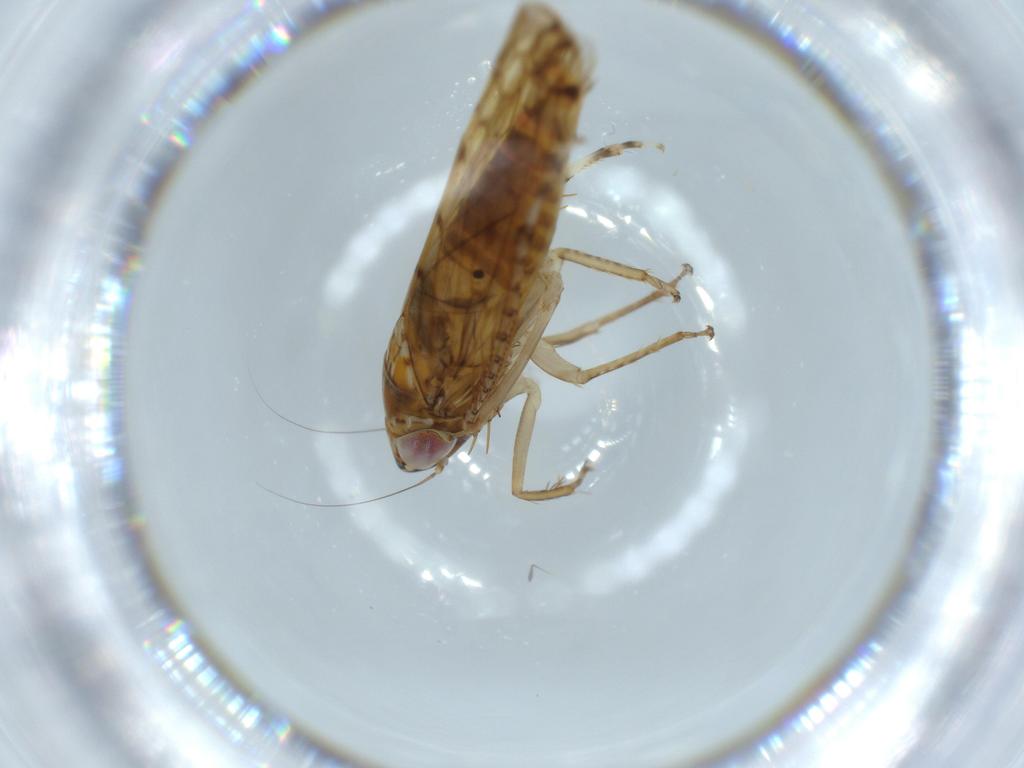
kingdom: Animalia
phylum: Arthropoda
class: Insecta
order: Hemiptera
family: Cicadellidae
